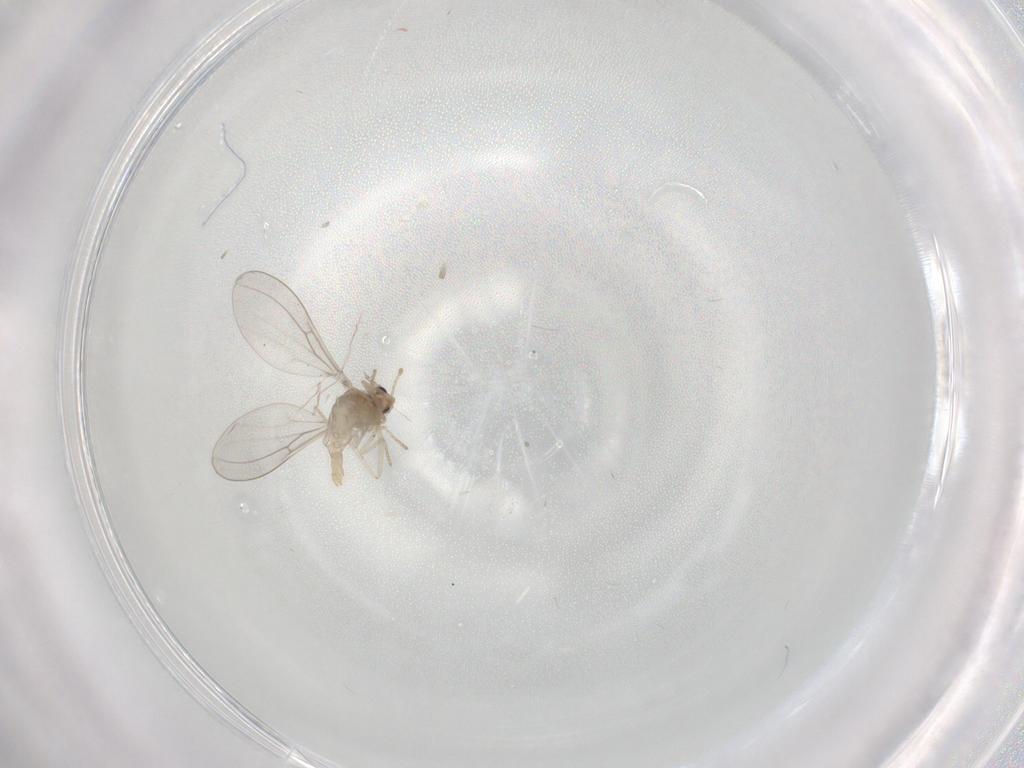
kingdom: Animalia
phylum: Arthropoda
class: Insecta
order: Diptera
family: Cecidomyiidae
